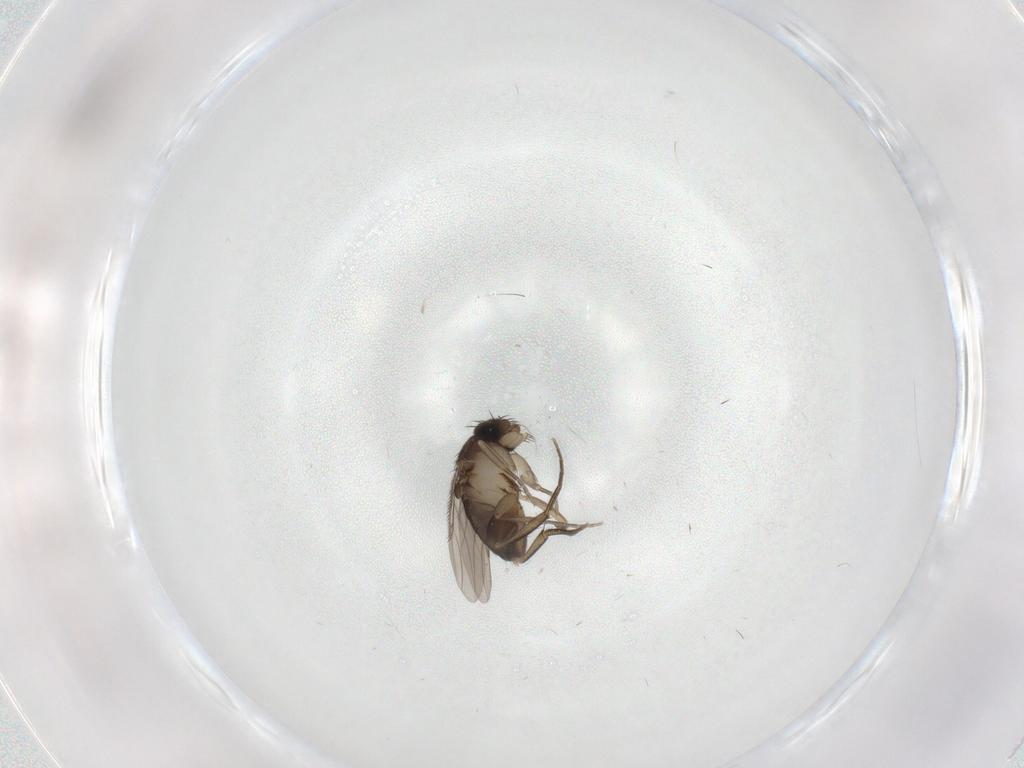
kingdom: Animalia
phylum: Arthropoda
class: Insecta
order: Diptera
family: Phoridae
